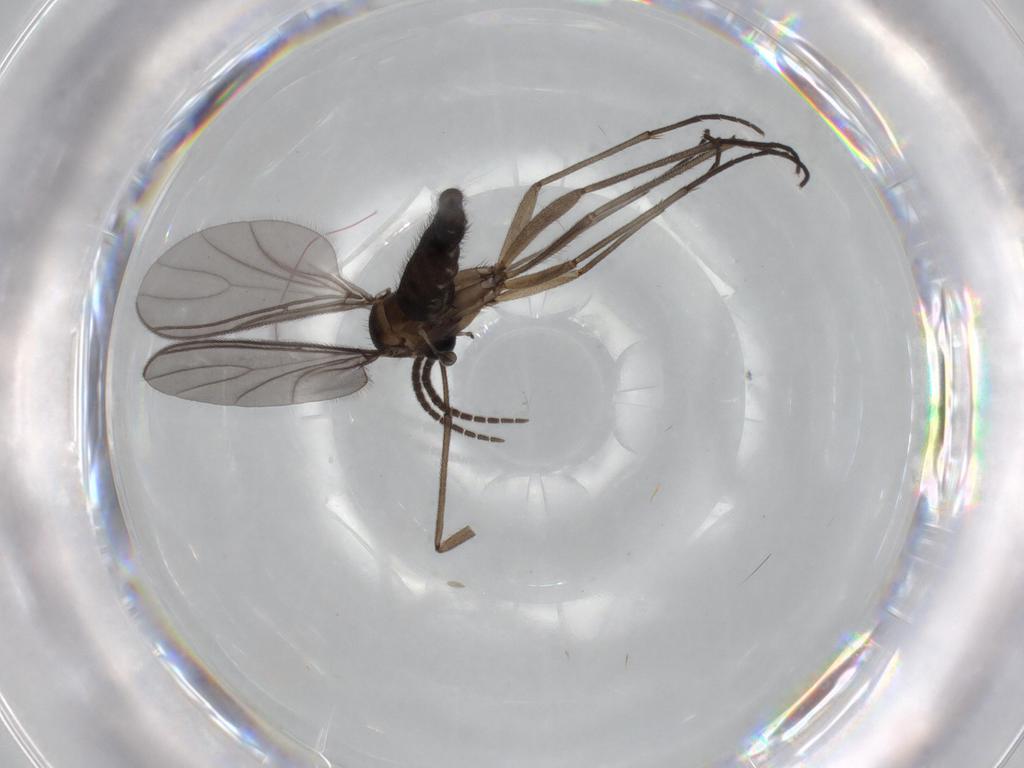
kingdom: Animalia
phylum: Arthropoda
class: Insecta
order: Diptera
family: Sciaridae
